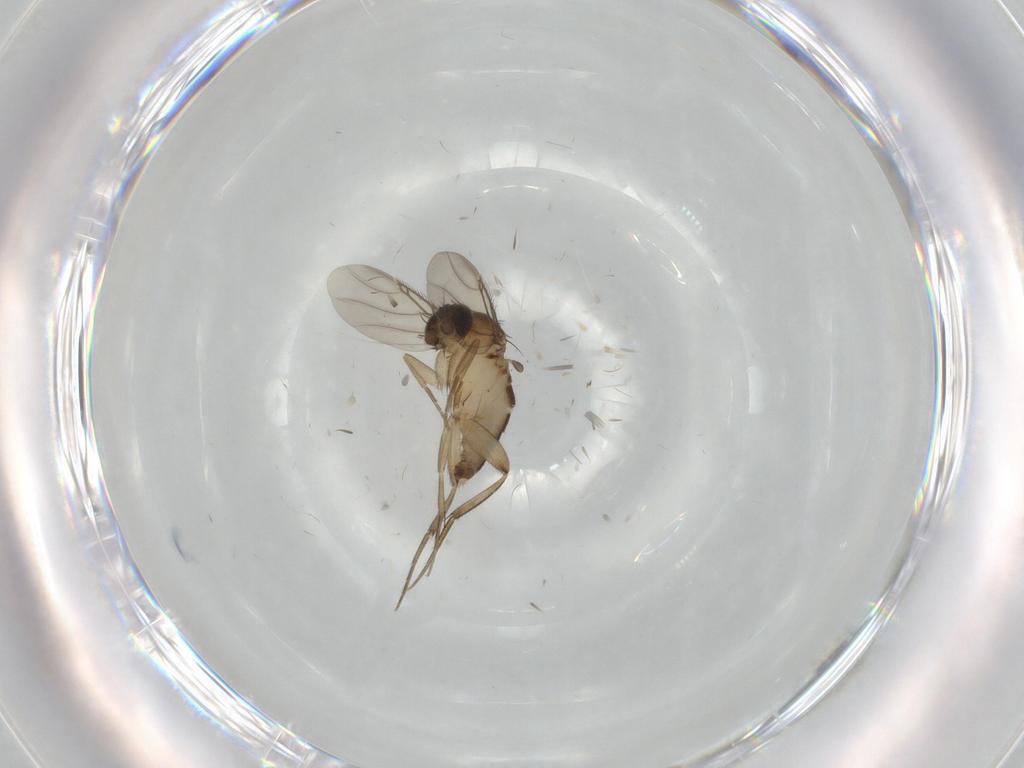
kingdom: Animalia
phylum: Arthropoda
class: Insecta
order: Diptera
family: Phoridae
